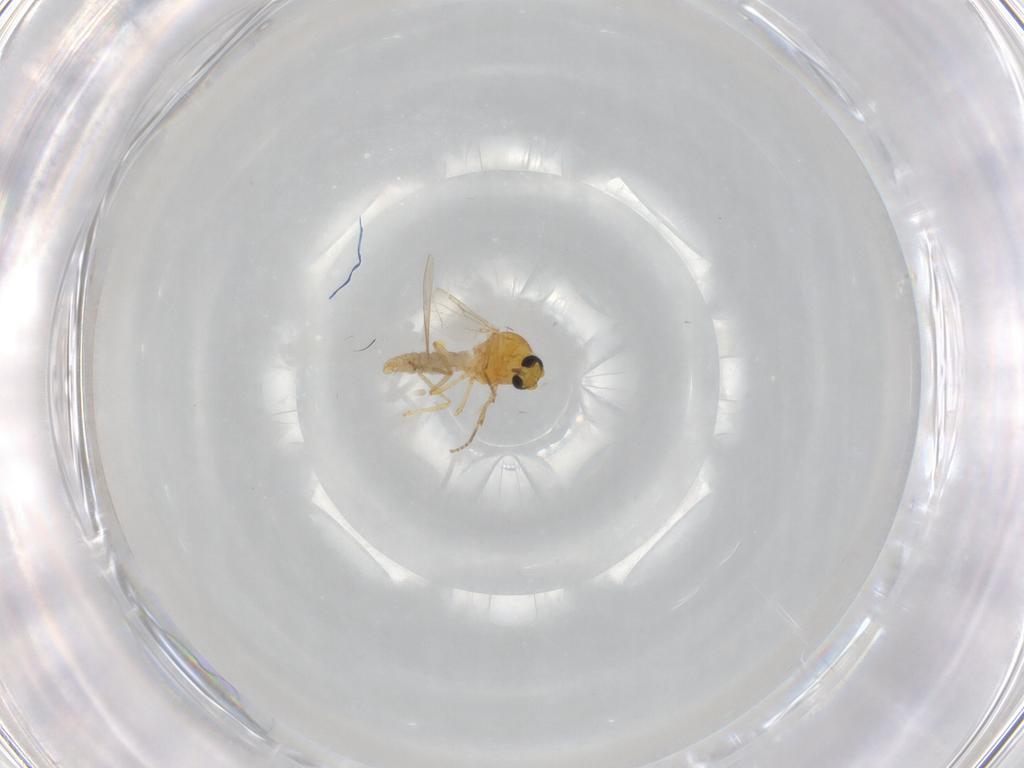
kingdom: Animalia
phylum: Arthropoda
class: Insecta
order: Diptera
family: Ceratopogonidae
